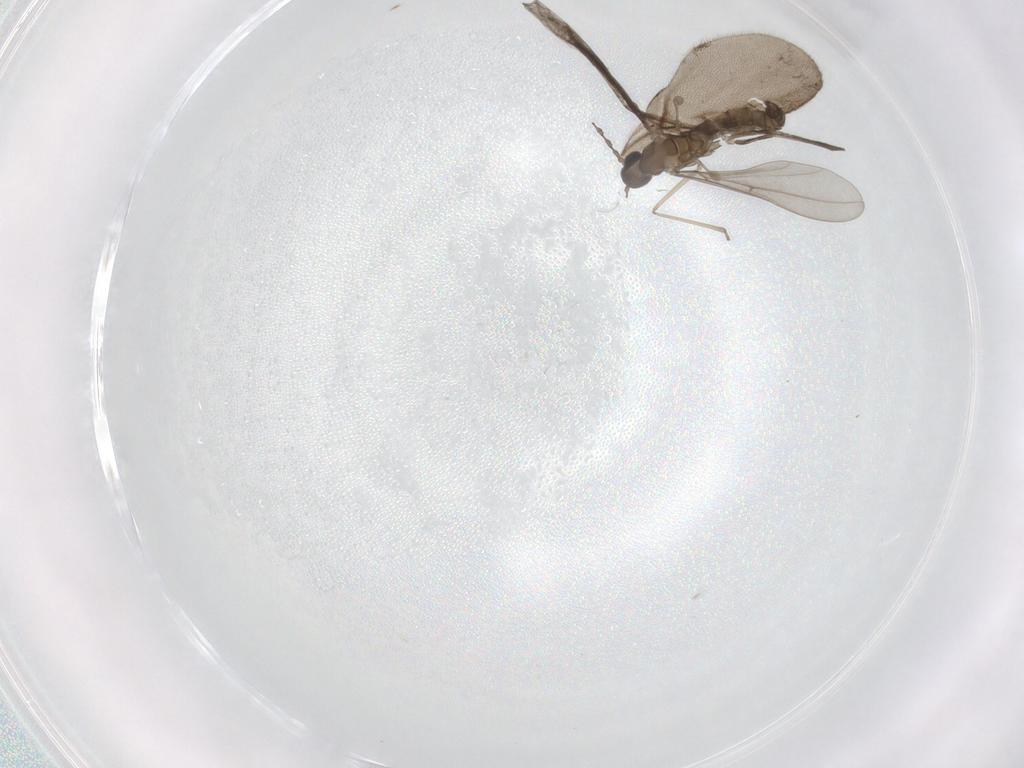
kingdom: Animalia
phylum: Arthropoda
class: Insecta
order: Diptera
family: Cecidomyiidae
